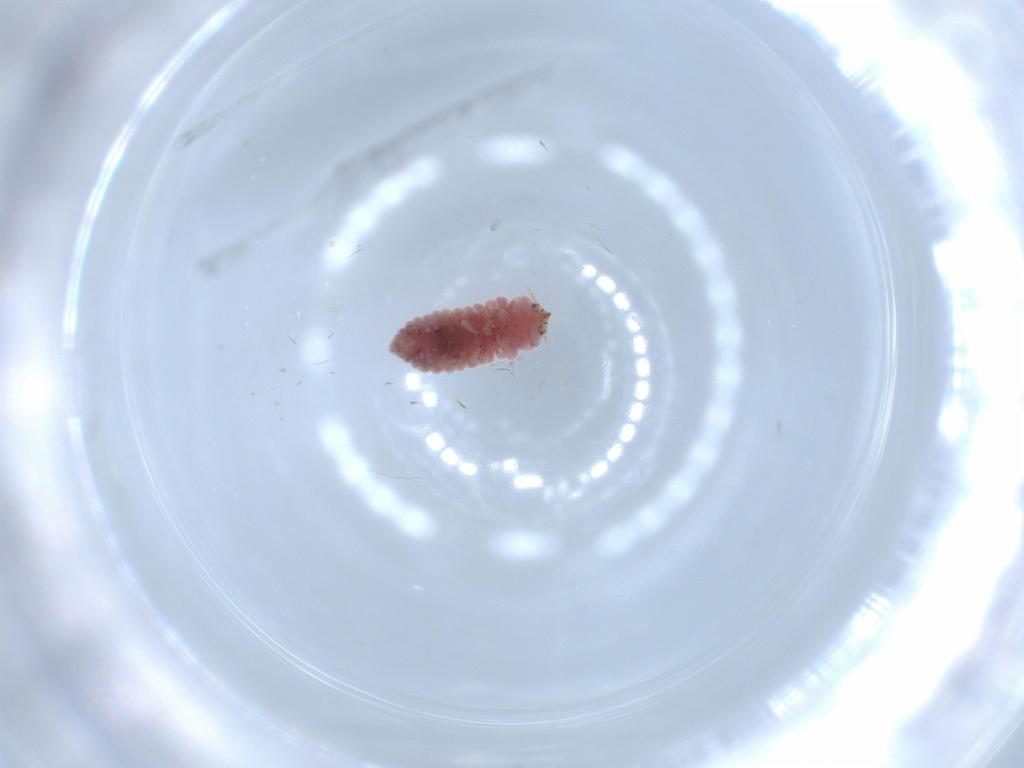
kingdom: Animalia
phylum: Arthropoda
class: Insecta
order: Neuroptera
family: Coniopterygidae
